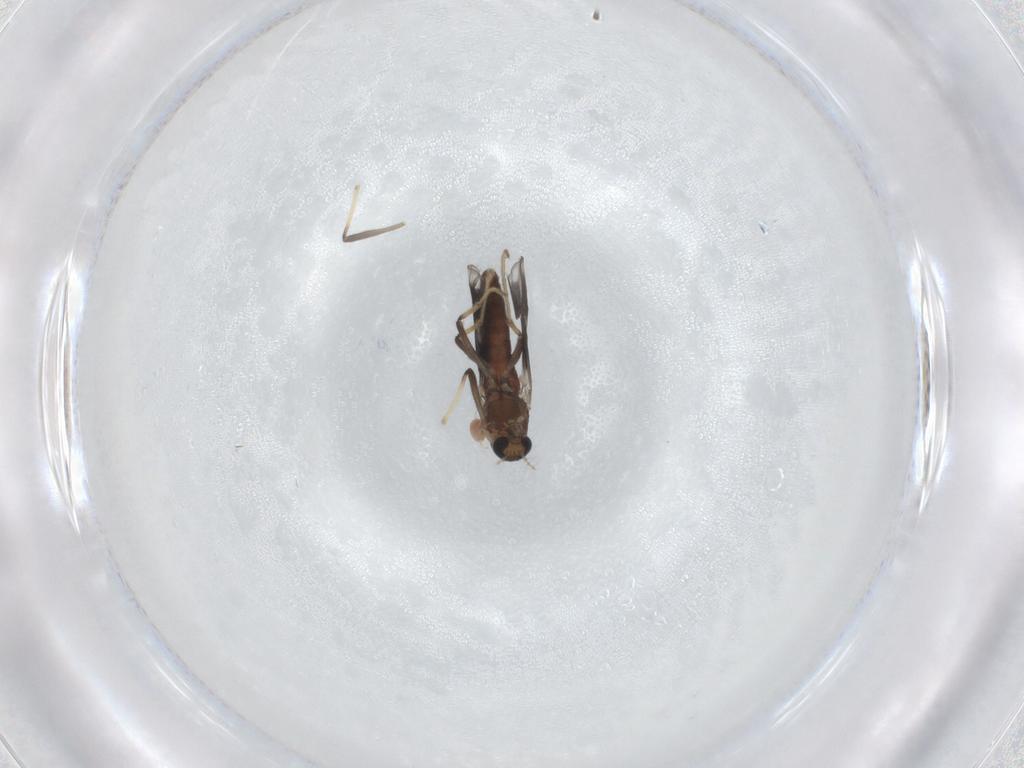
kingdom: Animalia
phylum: Arthropoda
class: Insecta
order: Diptera
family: Chironomidae
